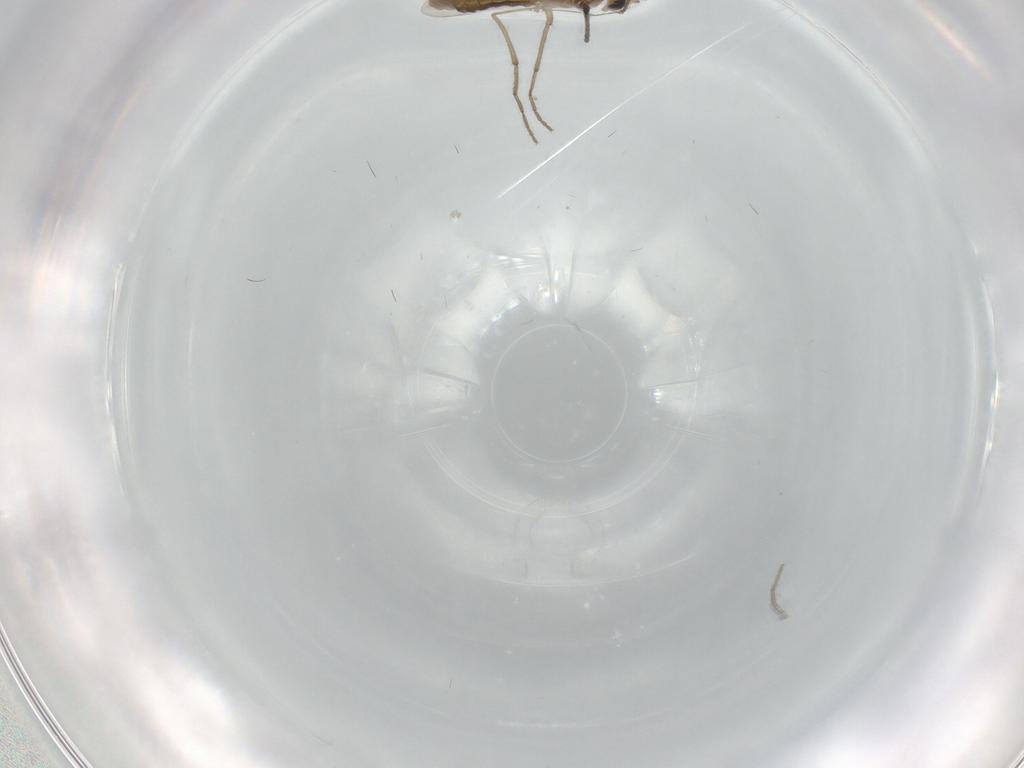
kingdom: Animalia
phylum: Arthropoda
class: Insecta
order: Diptera
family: Chironomidae
